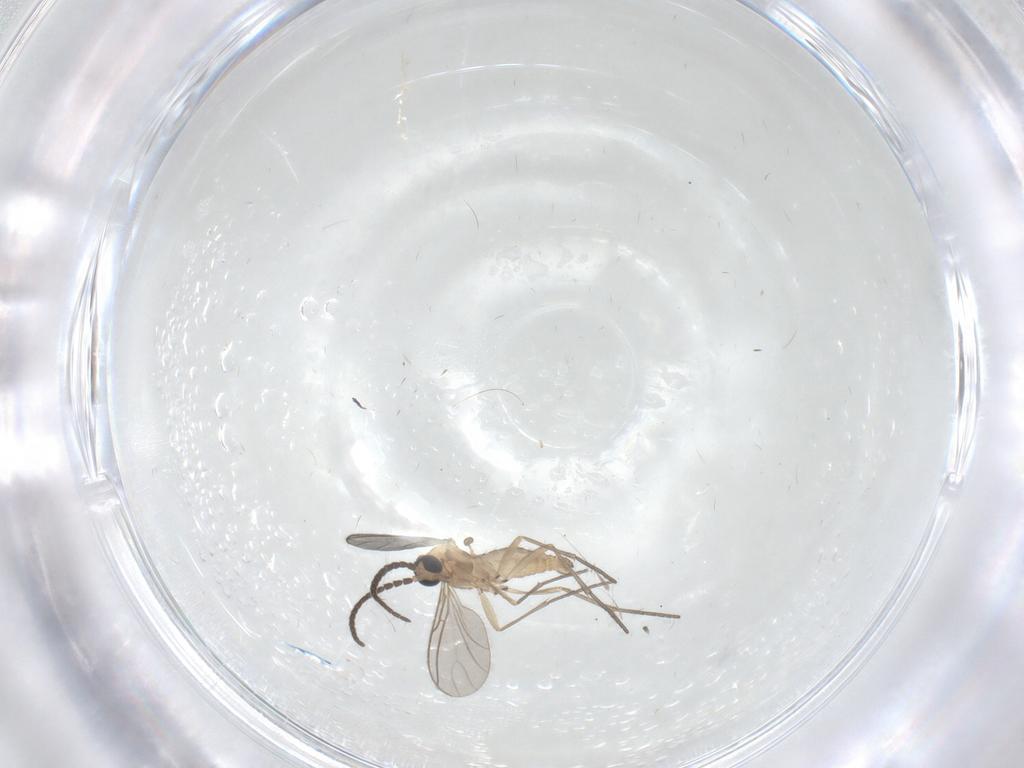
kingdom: Animalia
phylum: Arthropoda
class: Insecta
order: Diptera
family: Sciaridae
